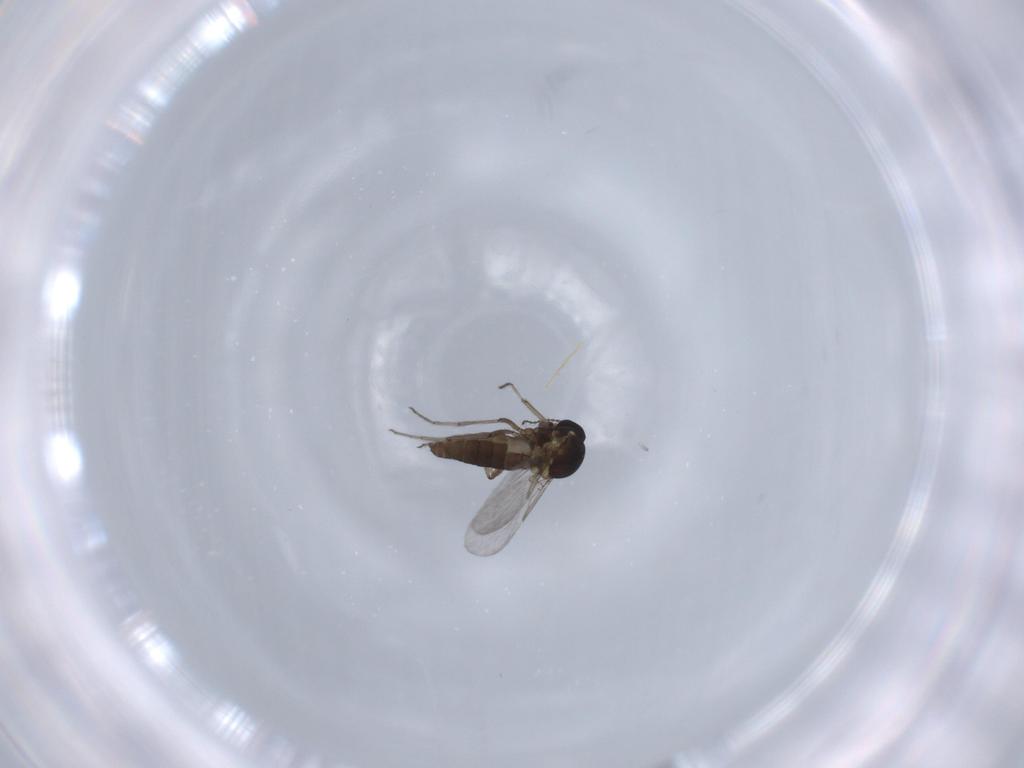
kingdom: Animalia
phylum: Arthropoda
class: Insecta
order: Diptera
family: Ceratopogonidae
